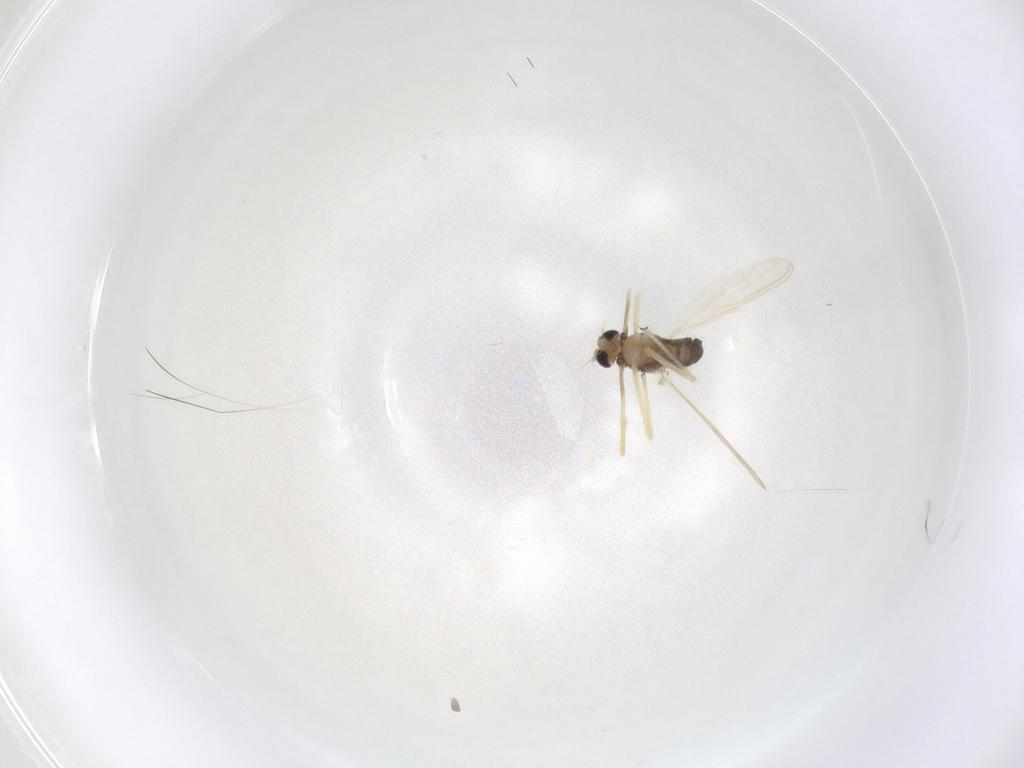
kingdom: Animalia
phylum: Arthropoda
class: Insecta
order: Diptera
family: Chironomidae
